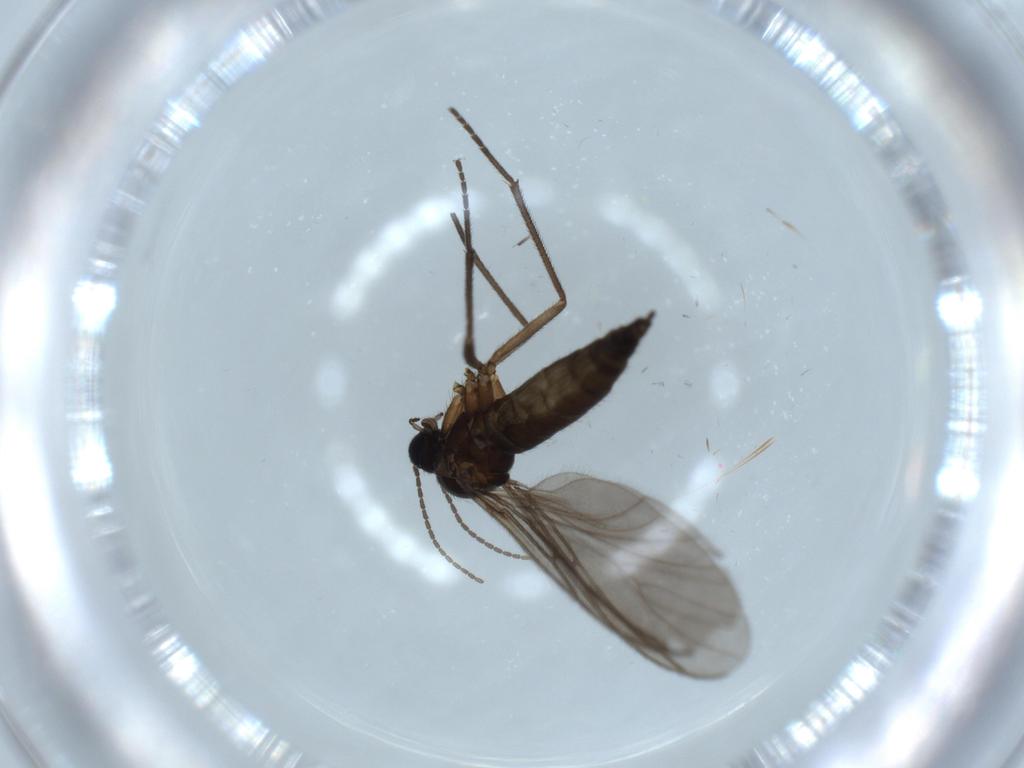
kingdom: Animalia
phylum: Arthropoda
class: Insecta
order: Diptera
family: Sciaridae
